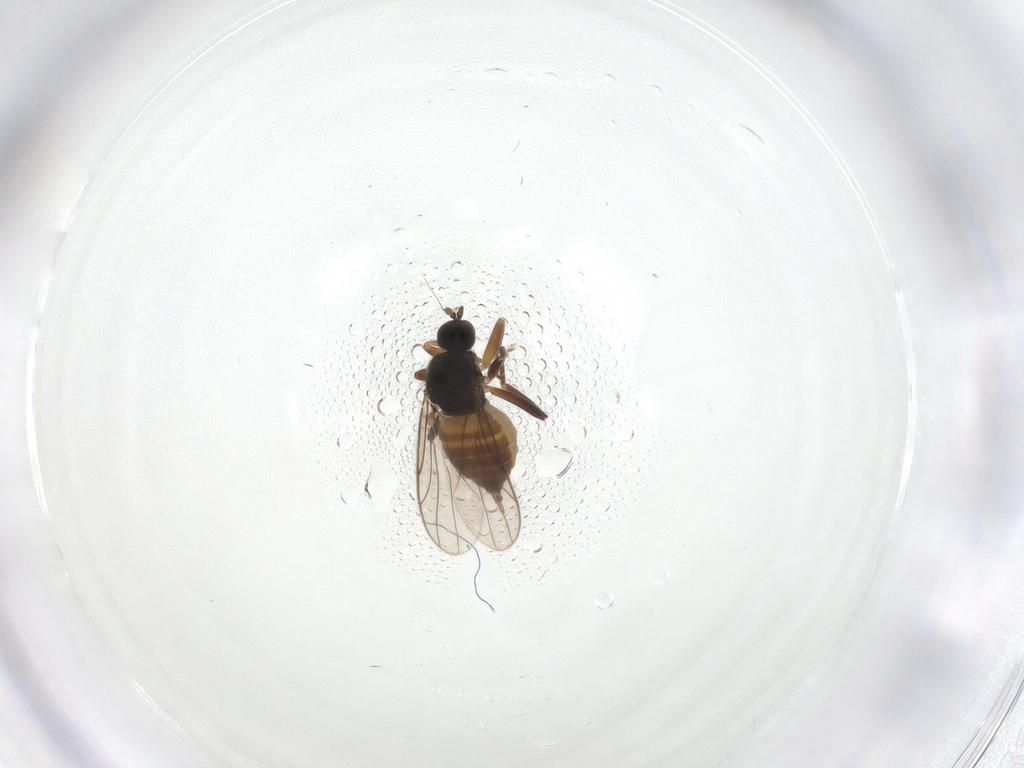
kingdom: Animalia
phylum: Arthropoda
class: Insecta
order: Diptera
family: Hybotidae
